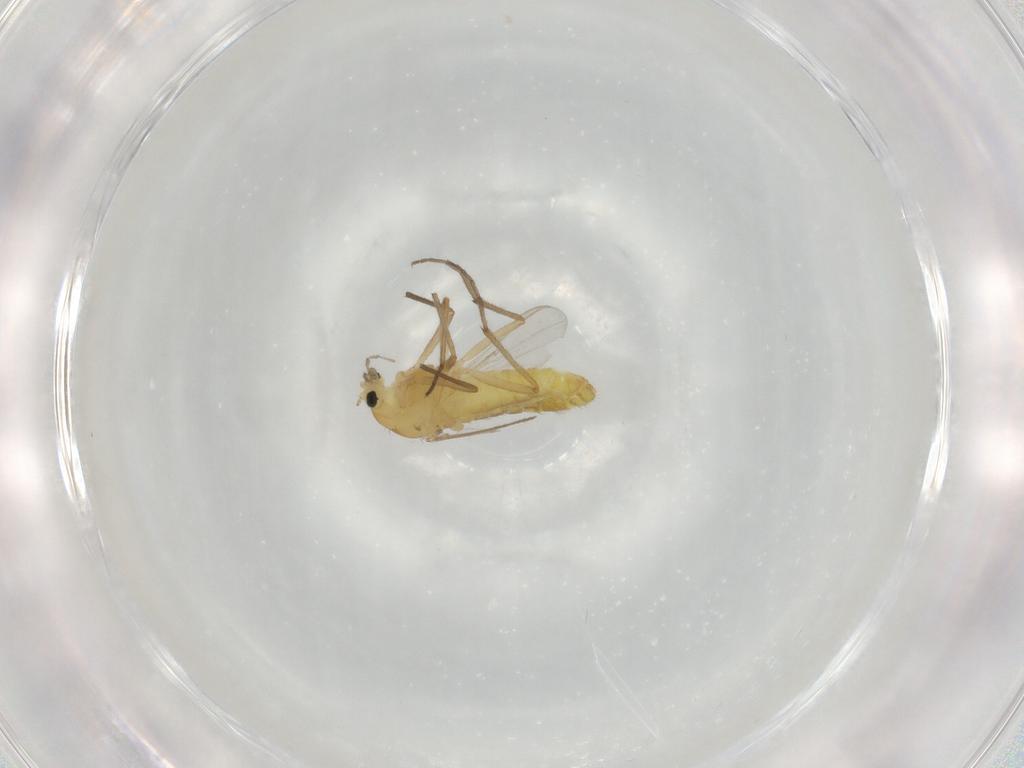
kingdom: Animalia
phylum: Arthropoda
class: Insecta
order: Diptera
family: Chironomidae
